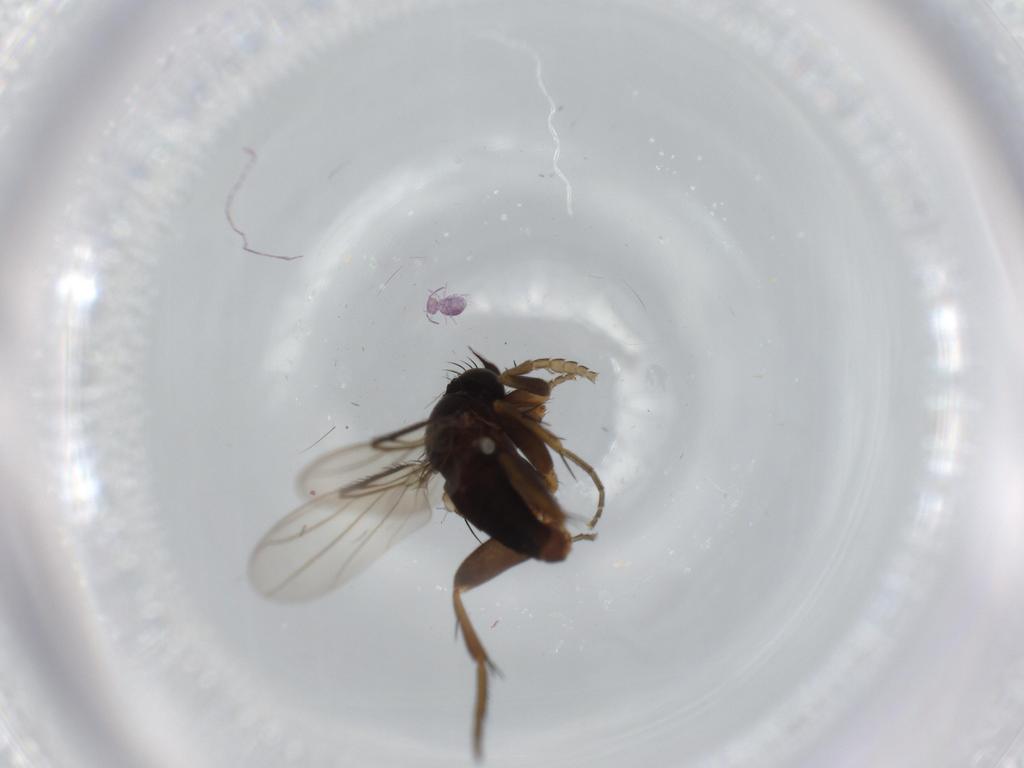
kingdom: Animalia
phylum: Arthropoda
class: Insecta
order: Diptera
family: Phoridae
